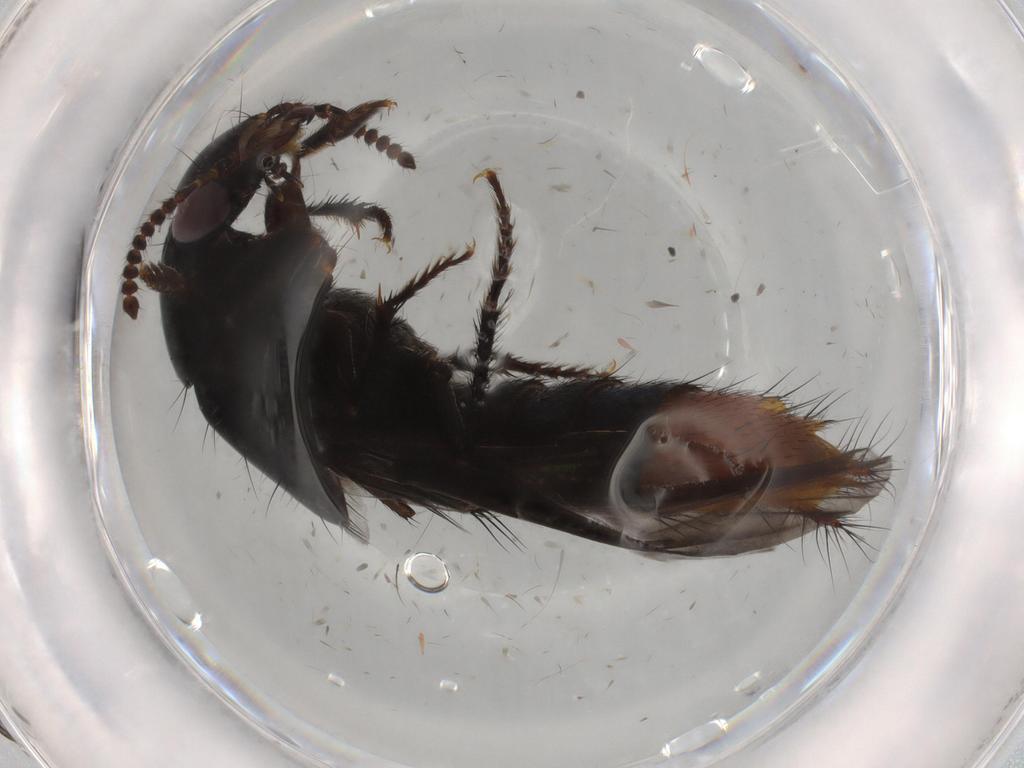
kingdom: Animalia
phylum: Arthropoda
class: Insecta
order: Coleoptera
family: Staphylinidae
